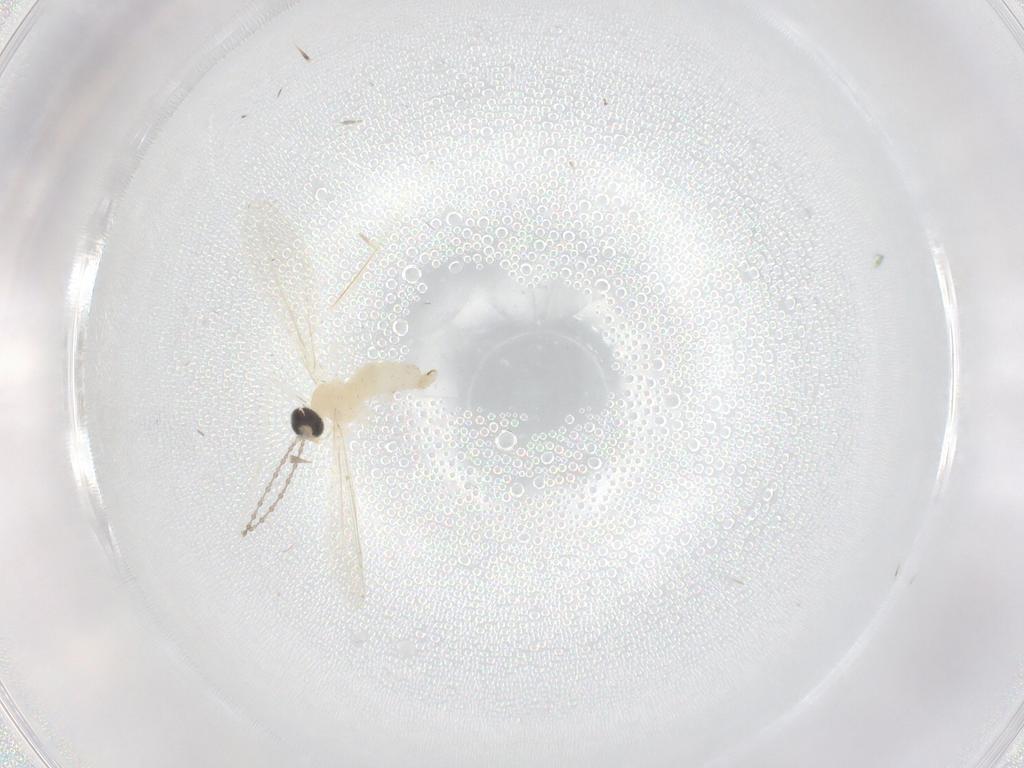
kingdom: Animalia
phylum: Arthropoda
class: Insecta
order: Diptera
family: Cecidomyiidae
